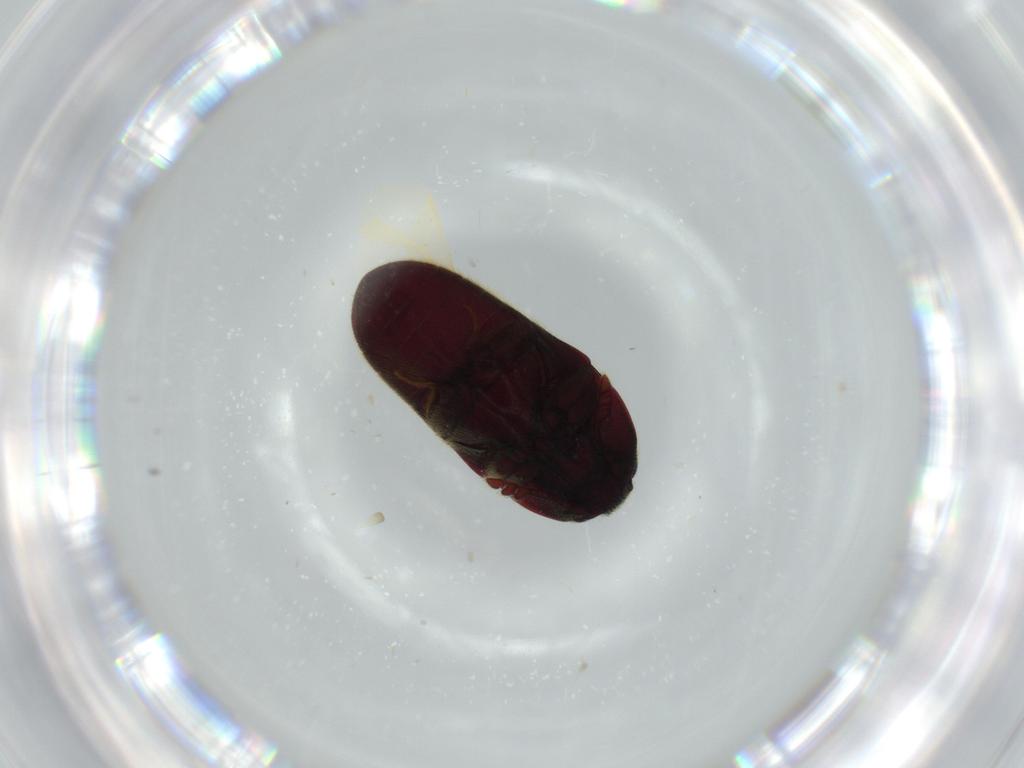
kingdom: Animalia
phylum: Arthropoda
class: Insecta
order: Coleoptera
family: Throscidae
